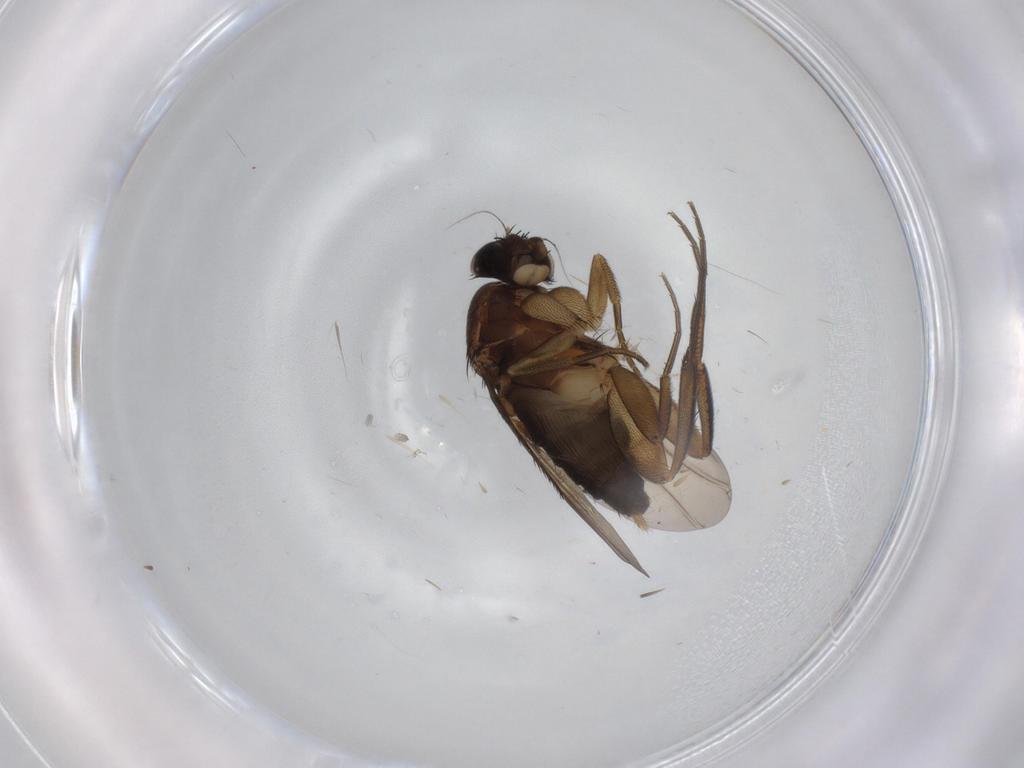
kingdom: Animalia
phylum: Arthropoda
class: Insecta
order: Diptera
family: Phoridae
